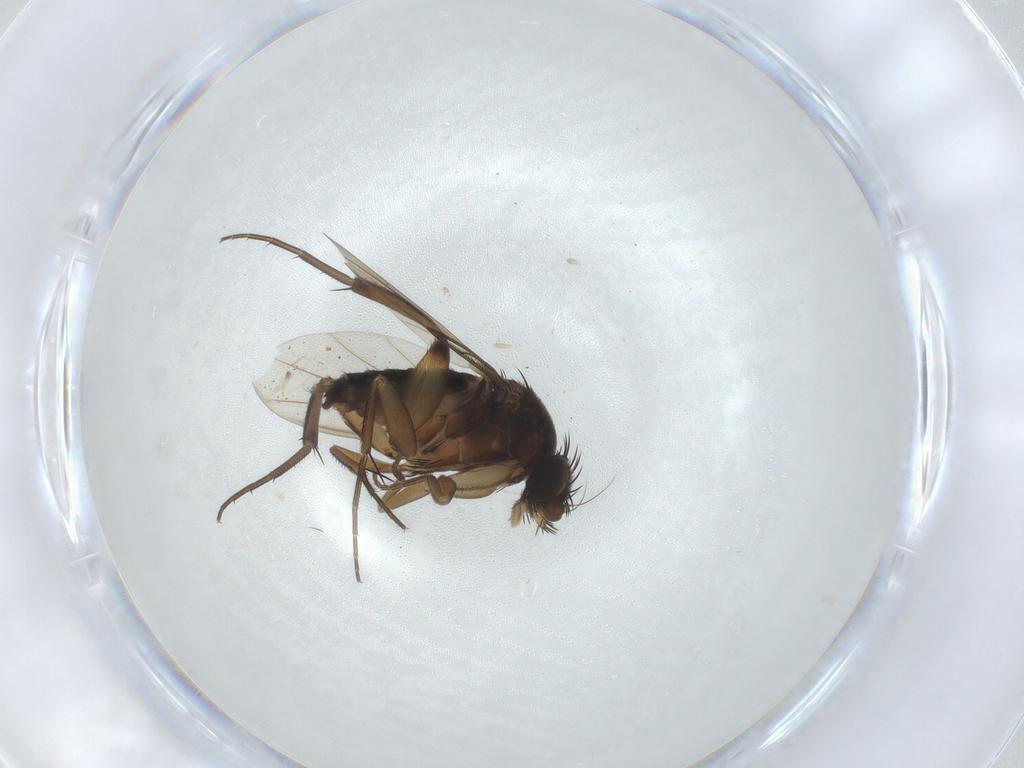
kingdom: Animalia
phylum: Arthropoda
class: Insecta
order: Diptera
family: Phoridae
